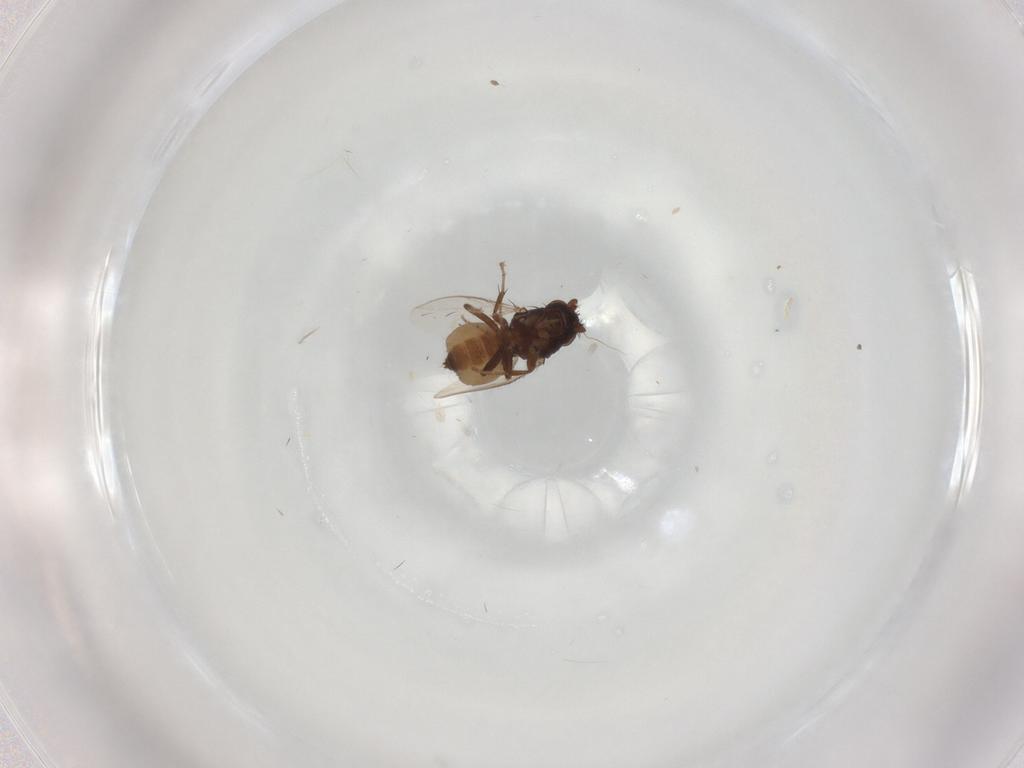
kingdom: Animalia
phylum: Arthropoda
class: Insecta
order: Diptera
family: Sphaeroceridae
